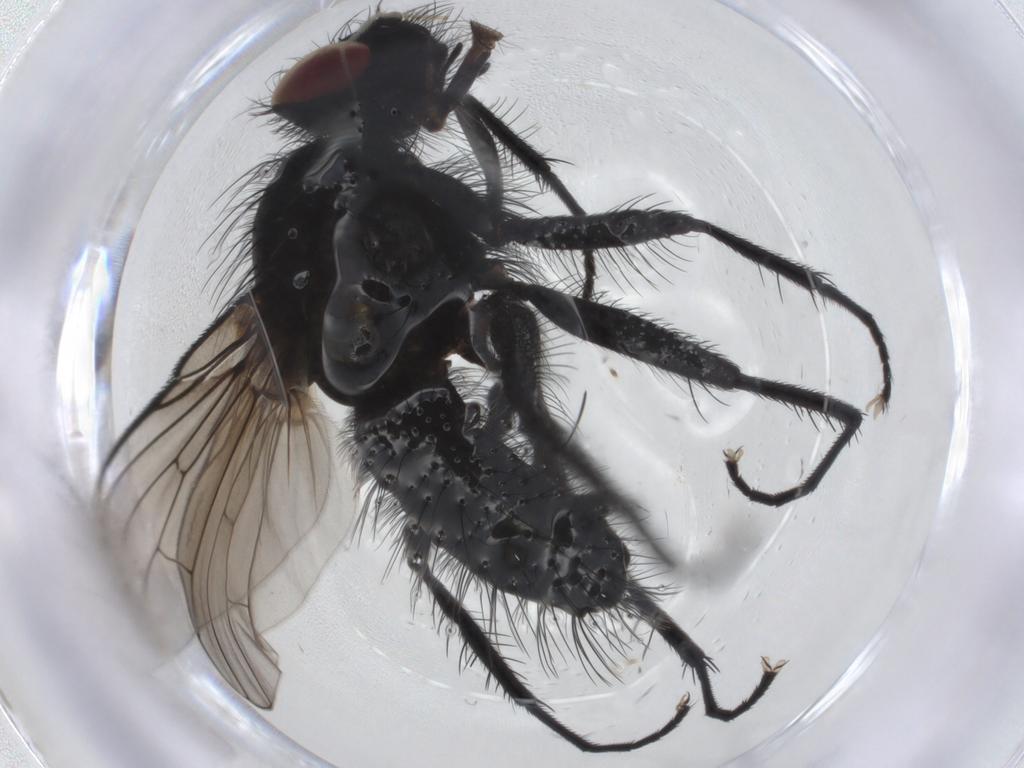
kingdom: Animalia
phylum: Arthropoda
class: Insecta
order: Diptera
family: Muscidae
